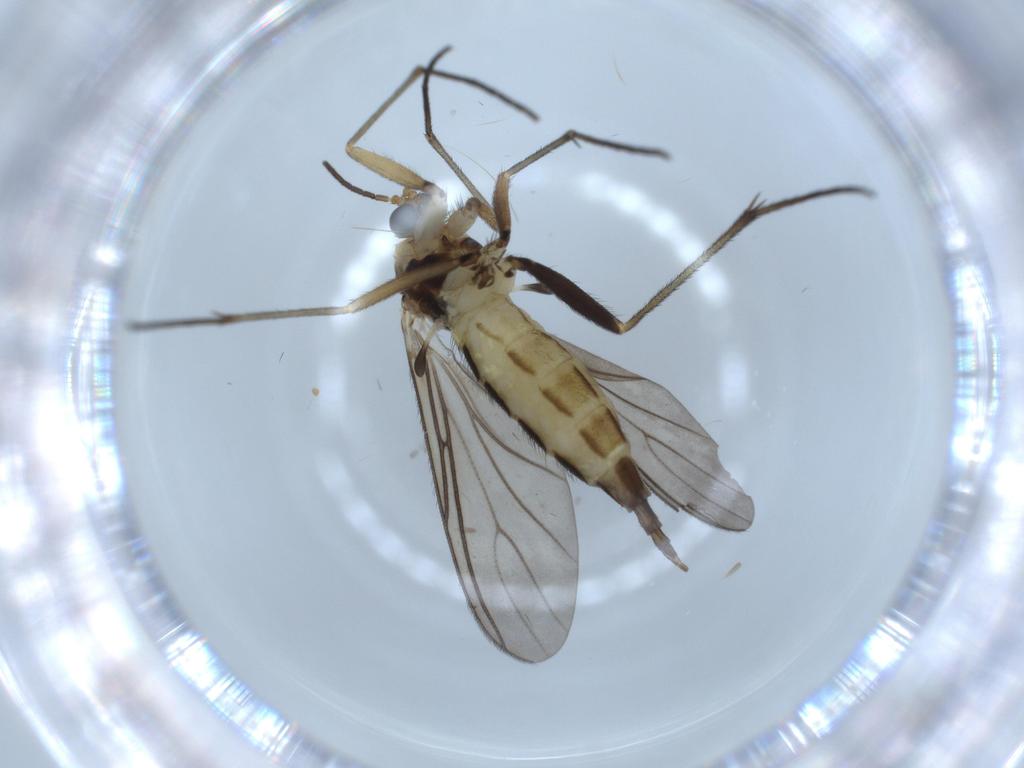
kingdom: Animalia
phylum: Arthropoda
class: Insecta
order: Diptera
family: Sciaridae
